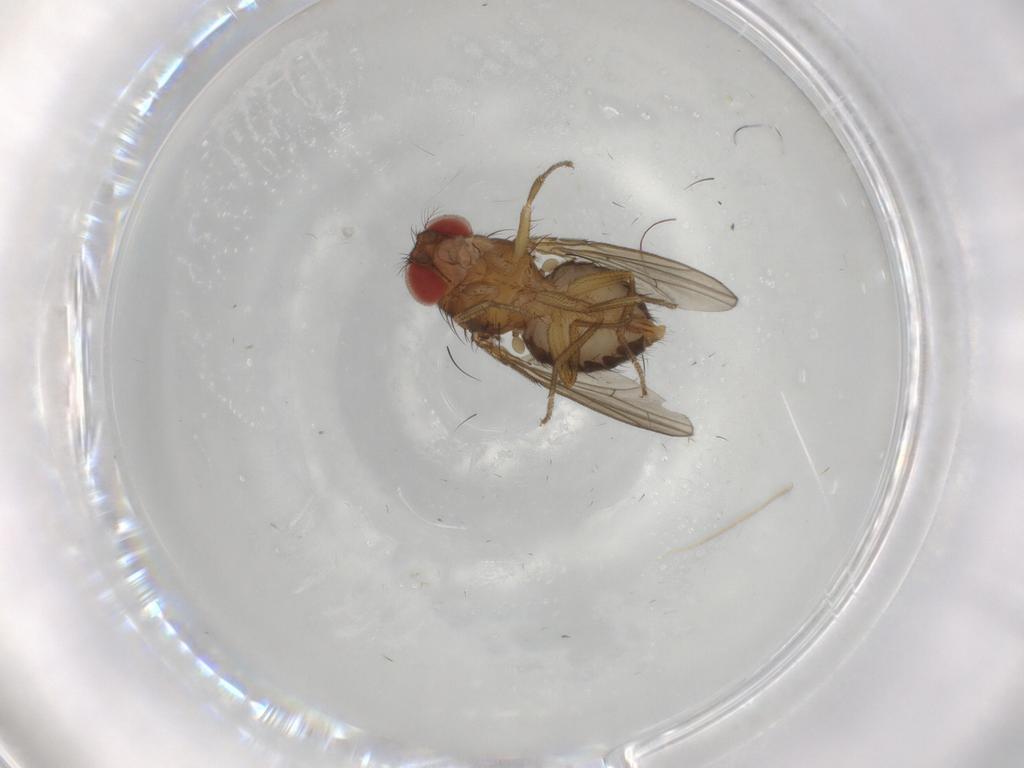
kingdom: Animalia
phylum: Arthropoda
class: Insecta
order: Diptera
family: Drosophilidae
